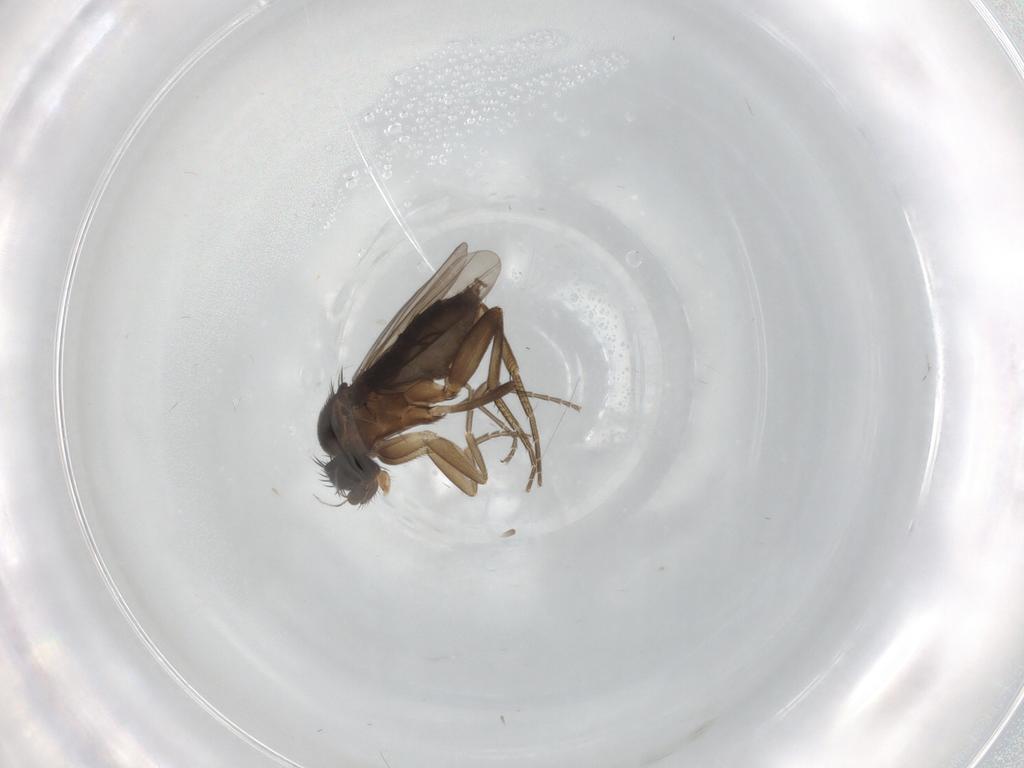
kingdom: Animalia
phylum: Arthropoda
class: Insecta
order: Diptera
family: Phoridae
